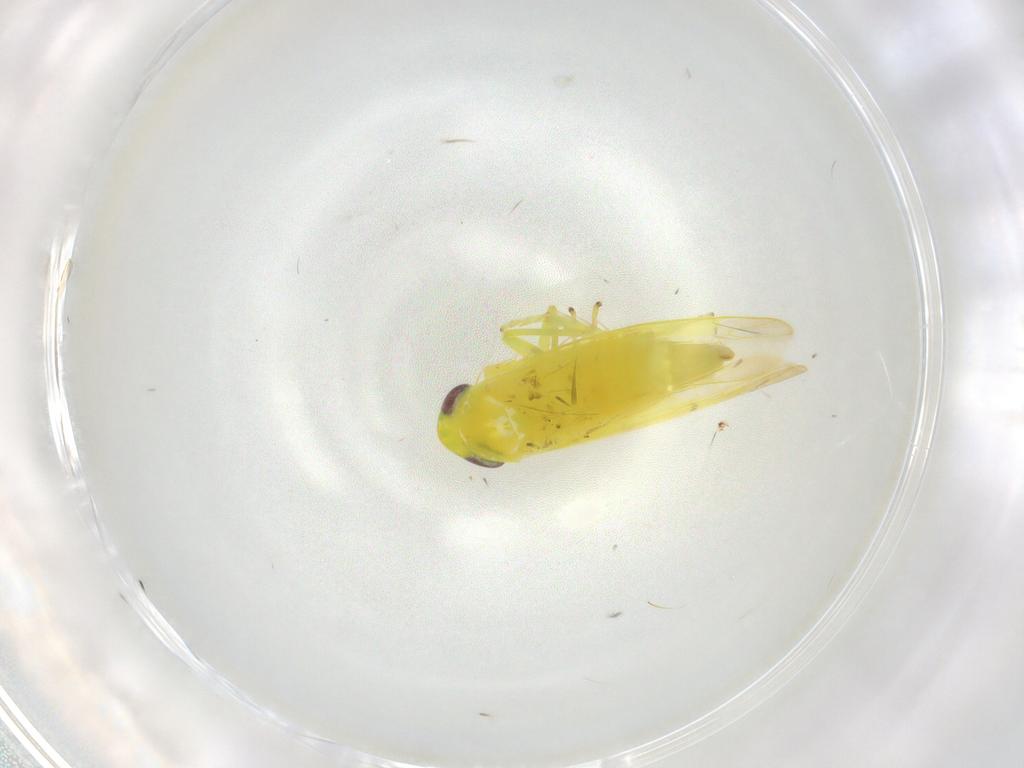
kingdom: Animalia
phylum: Arthropoda
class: Insecta
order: Hemiptera
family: Cicadellidae
